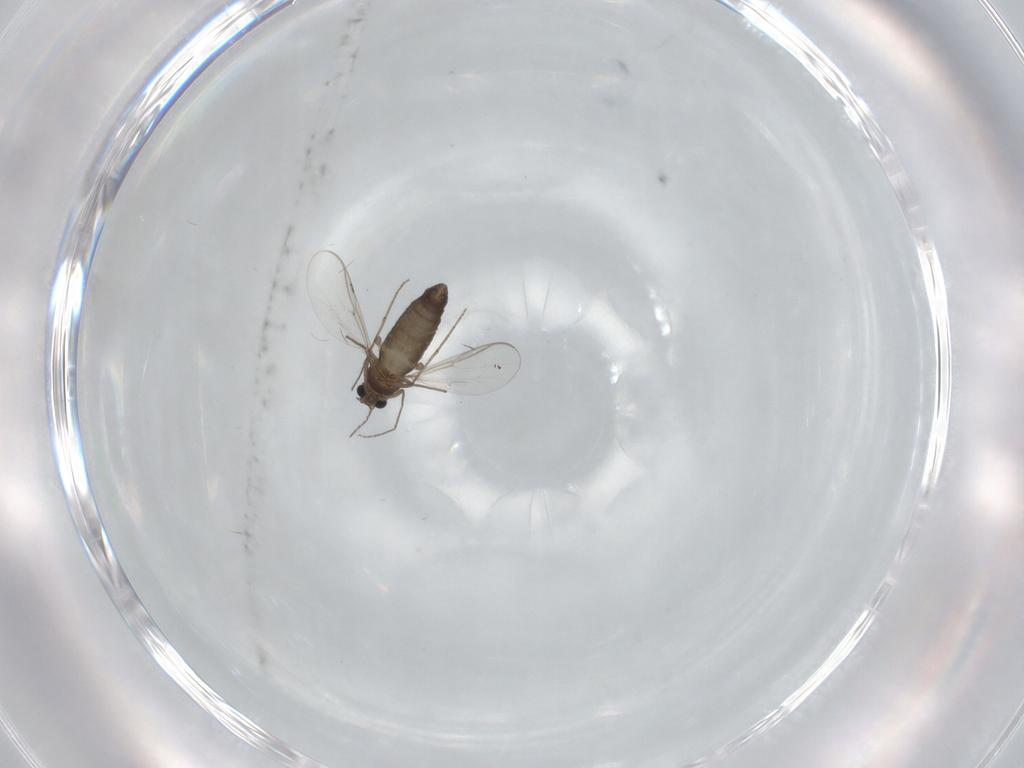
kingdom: Animalia
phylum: Arthropoda
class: Insecta
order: Diptera
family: Chironomidae
